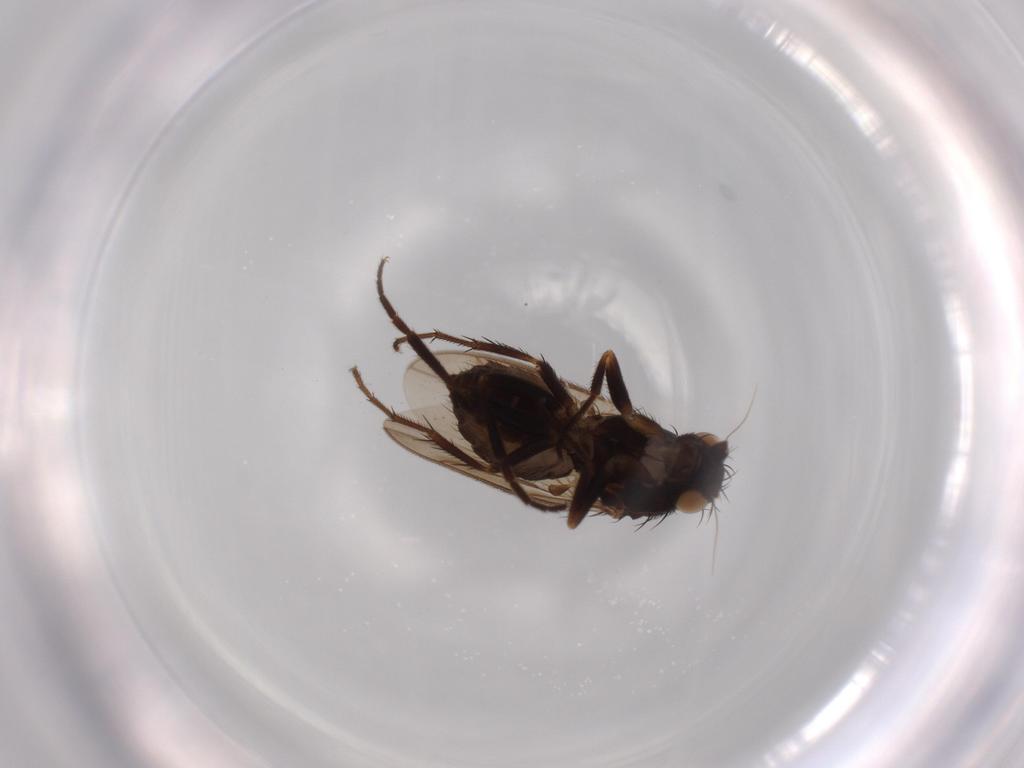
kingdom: Animalia
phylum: Arthropoda
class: Insecta
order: Diptera
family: Sphaeroceridae
